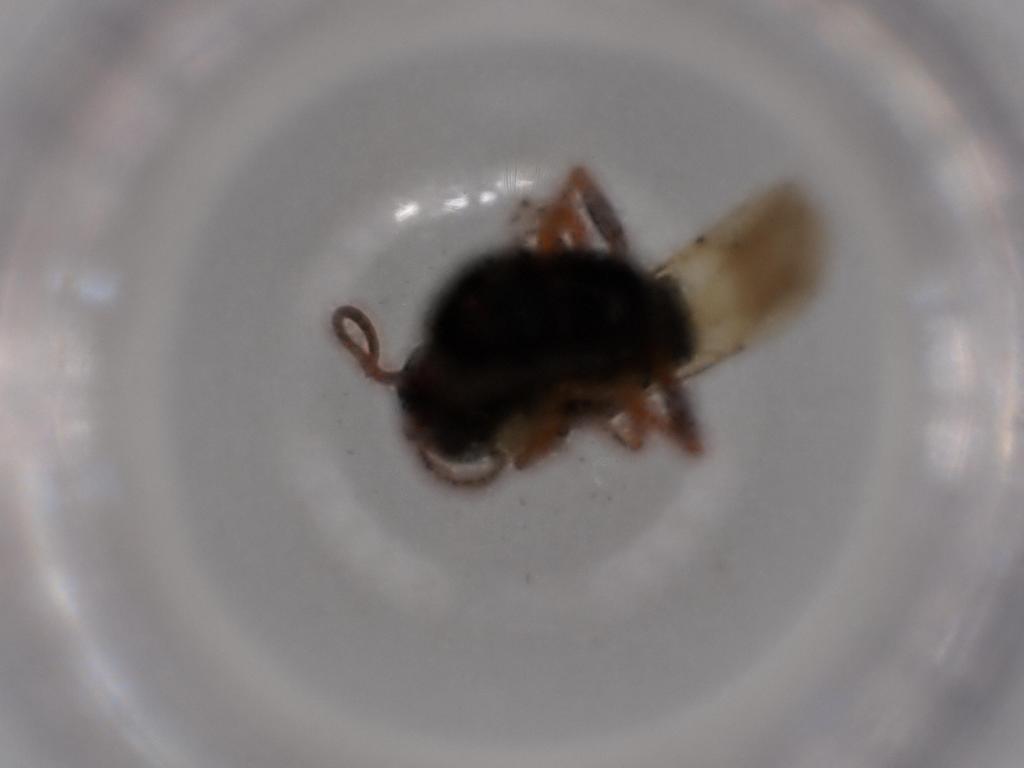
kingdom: Animalia
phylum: Arthropoda
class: Insecta
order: Hymenoptera
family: Bethylidae
